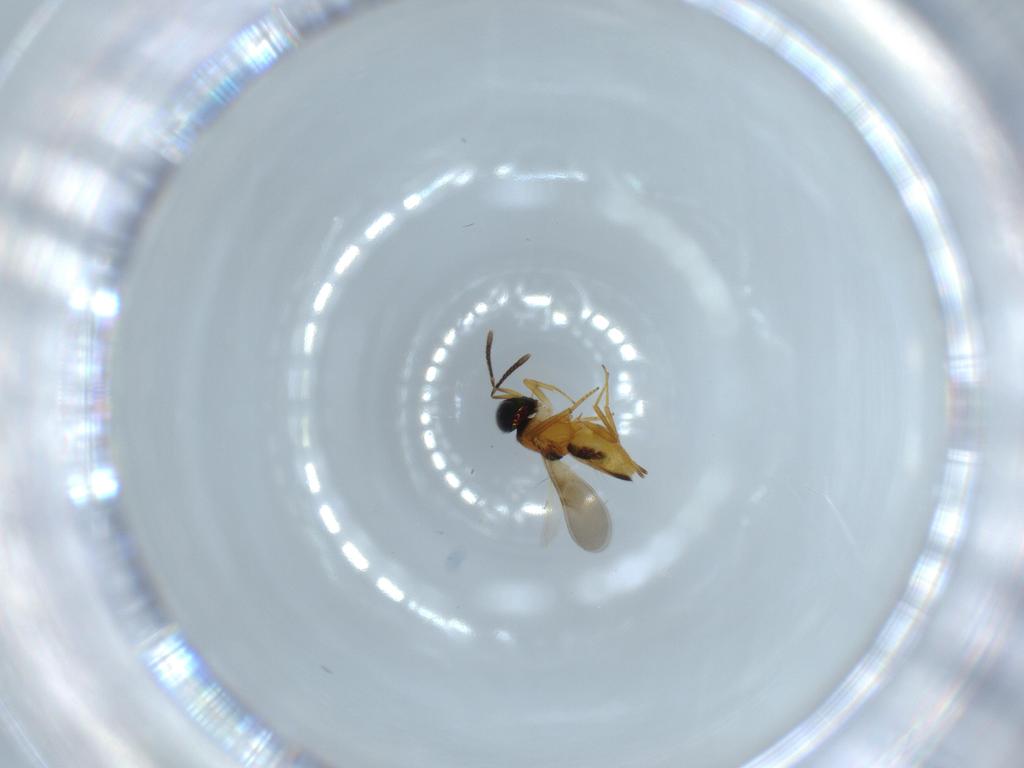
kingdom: Animalia
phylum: Arthropoda
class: Insecta
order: Hymenoptera
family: Encyrtidae
